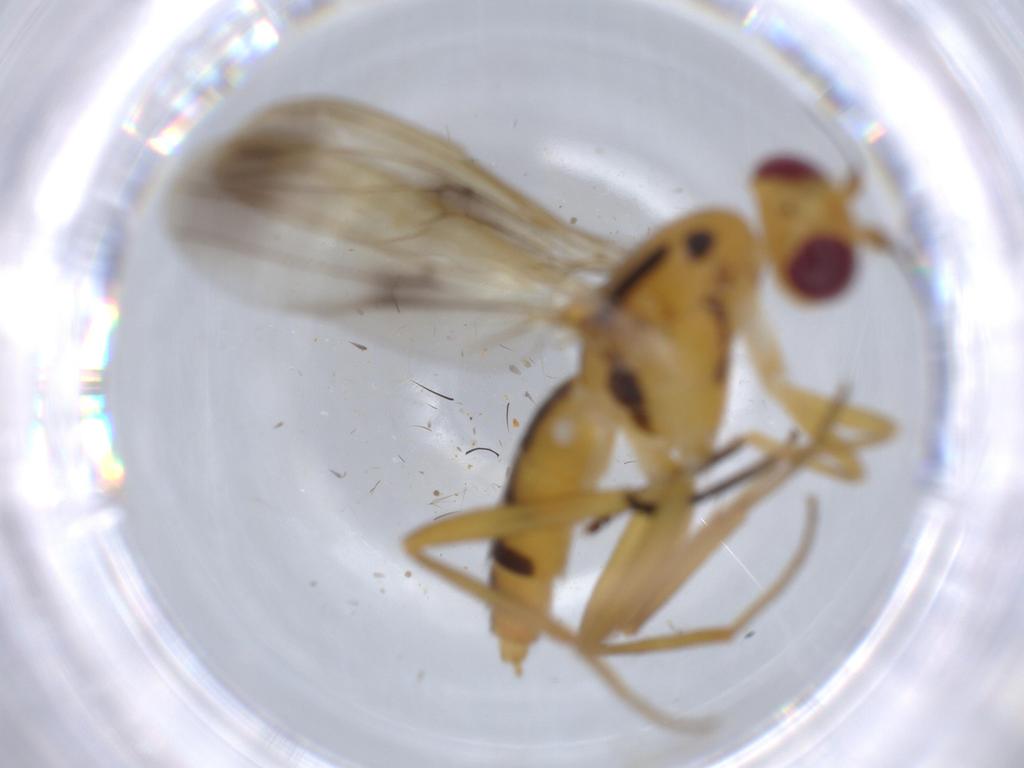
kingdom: Animalia
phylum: Arthropoda
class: Insecta
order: Diptera
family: Clusiidae
